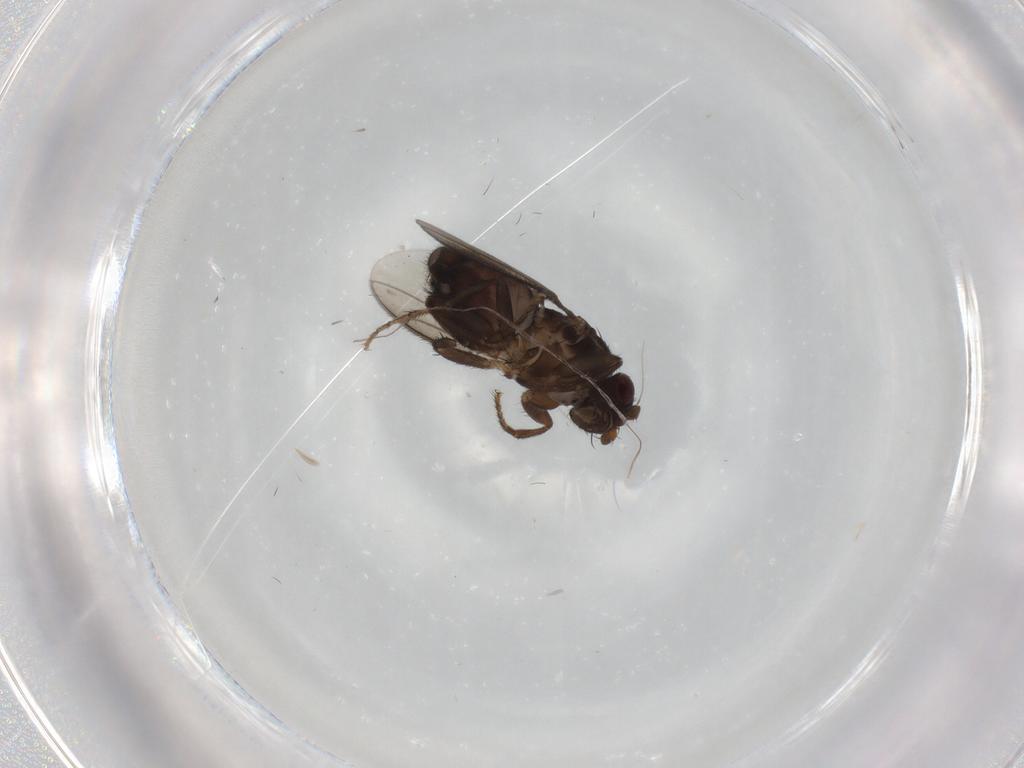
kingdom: Animalia
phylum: Arthropoda
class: Insecta
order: Diptera
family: Sphaeroceridae
